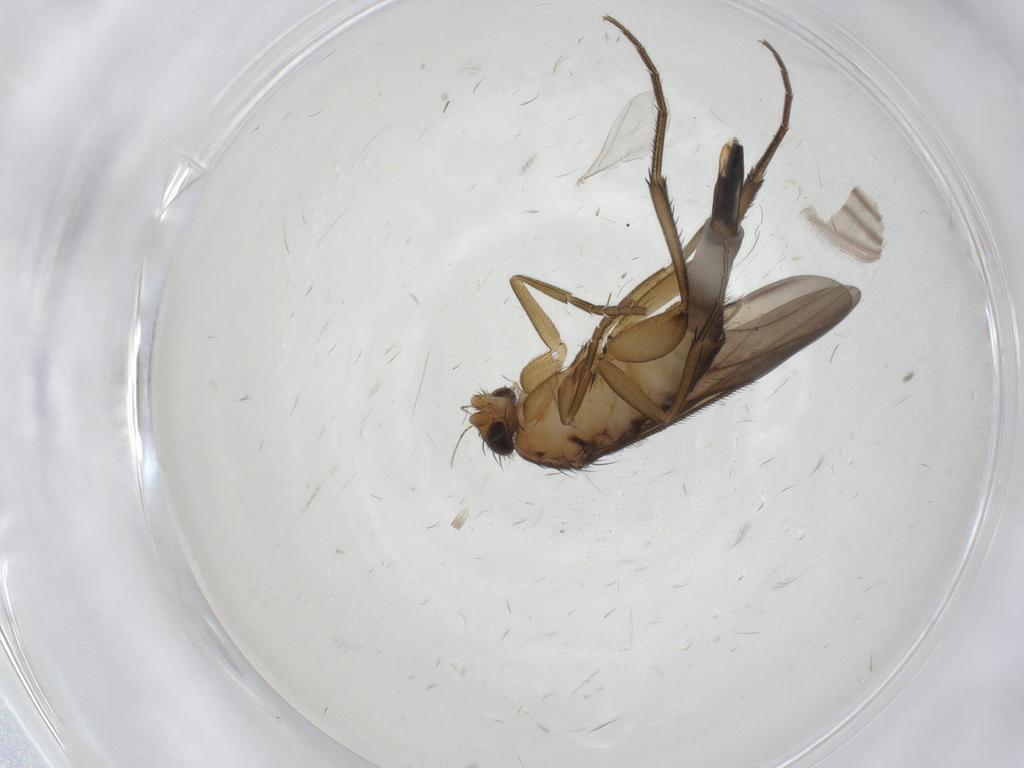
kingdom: Animalia
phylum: Arthropoda
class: Insecta
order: Diptera
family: Phoridae
